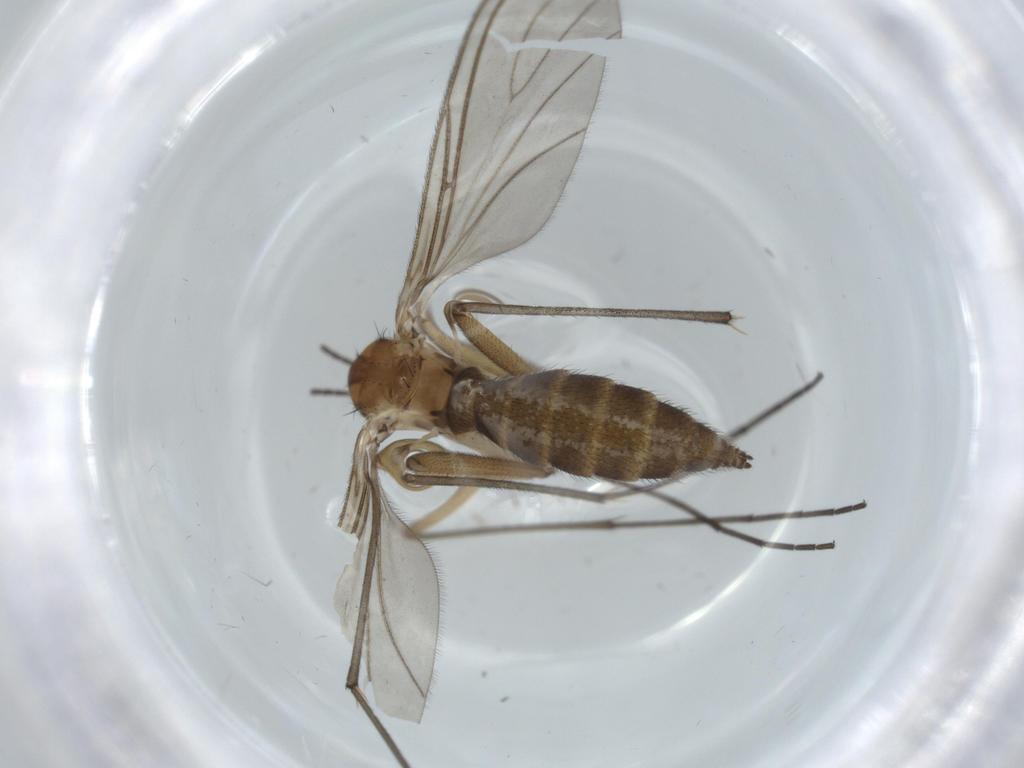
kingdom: Animalia
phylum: Arthropoda
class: Insecta
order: Diptera
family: Sciaridae
